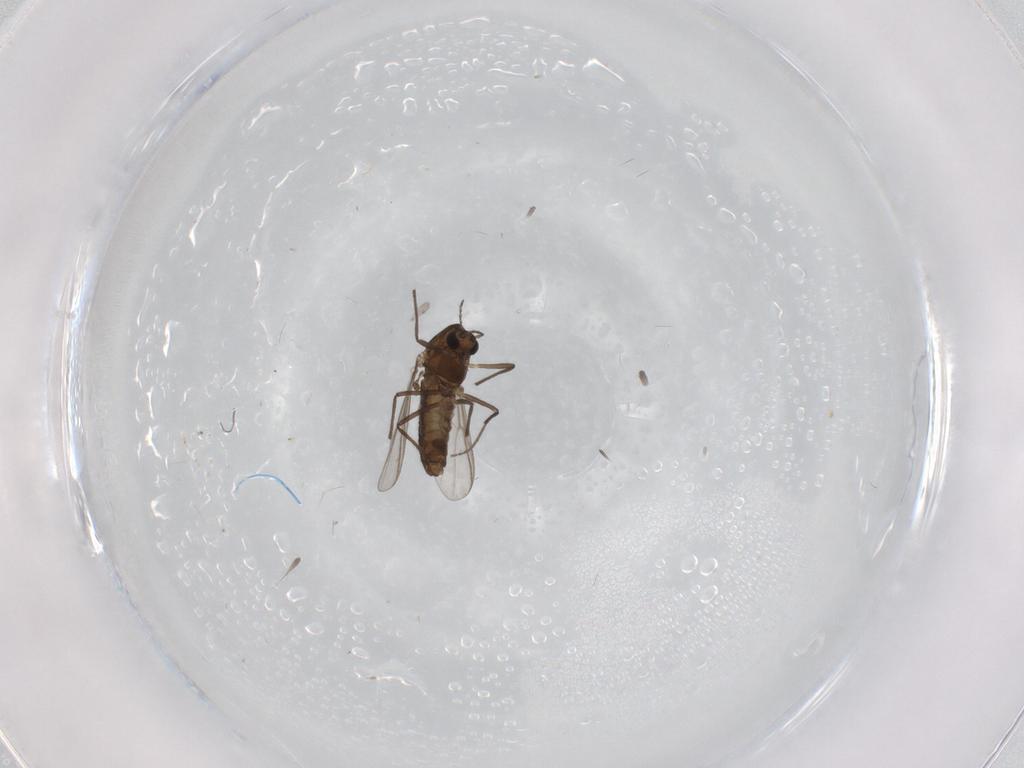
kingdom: Animalia
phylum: Arthropoda
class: Insecta
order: Diptera
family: Chironomidae
